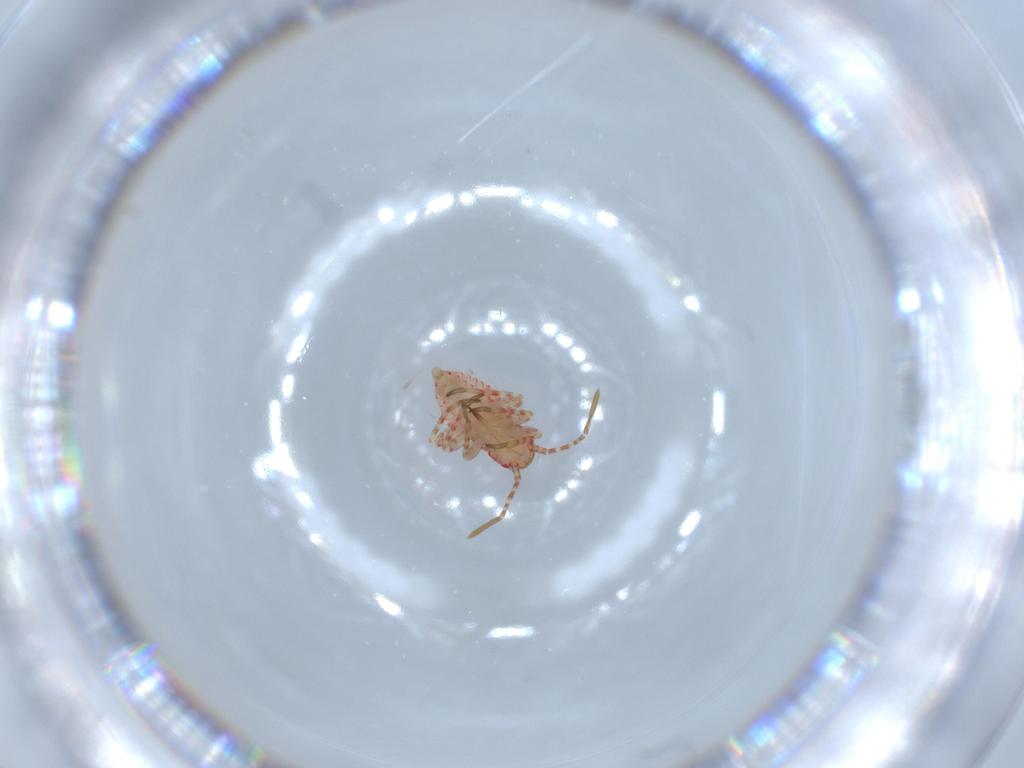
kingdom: Animalia
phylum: Arthropoda
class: Insecta
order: Hemiptera
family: Miridae
